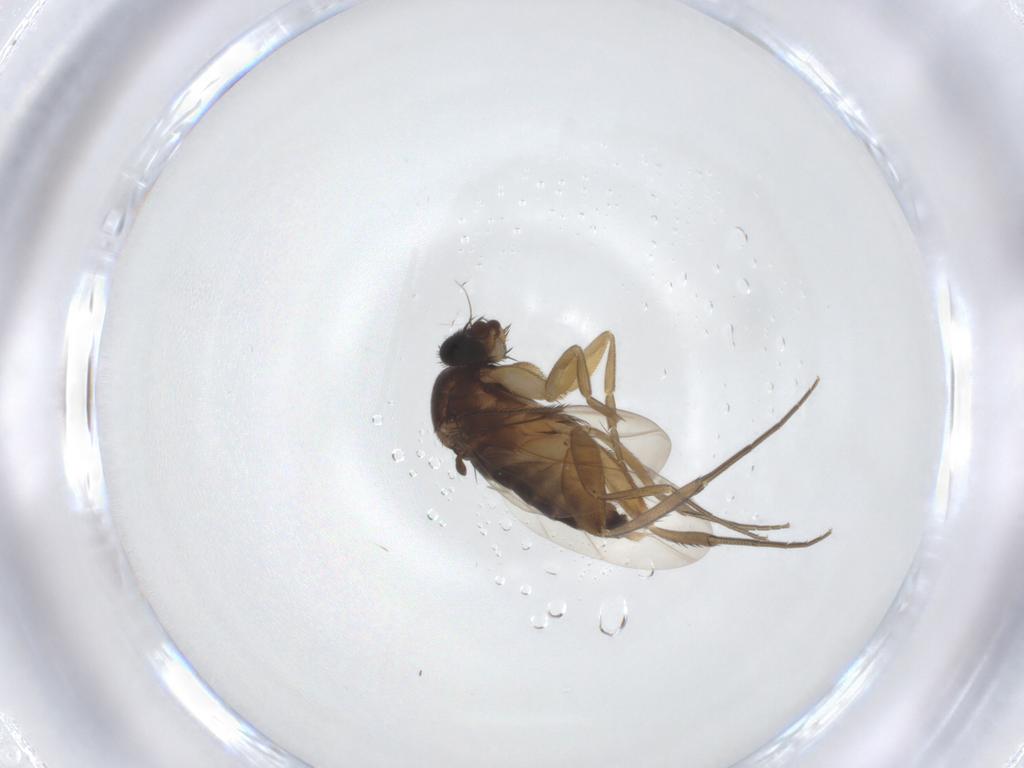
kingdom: Animalia
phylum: Arthropoda
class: Insecta
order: Diptera
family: Phoridae
